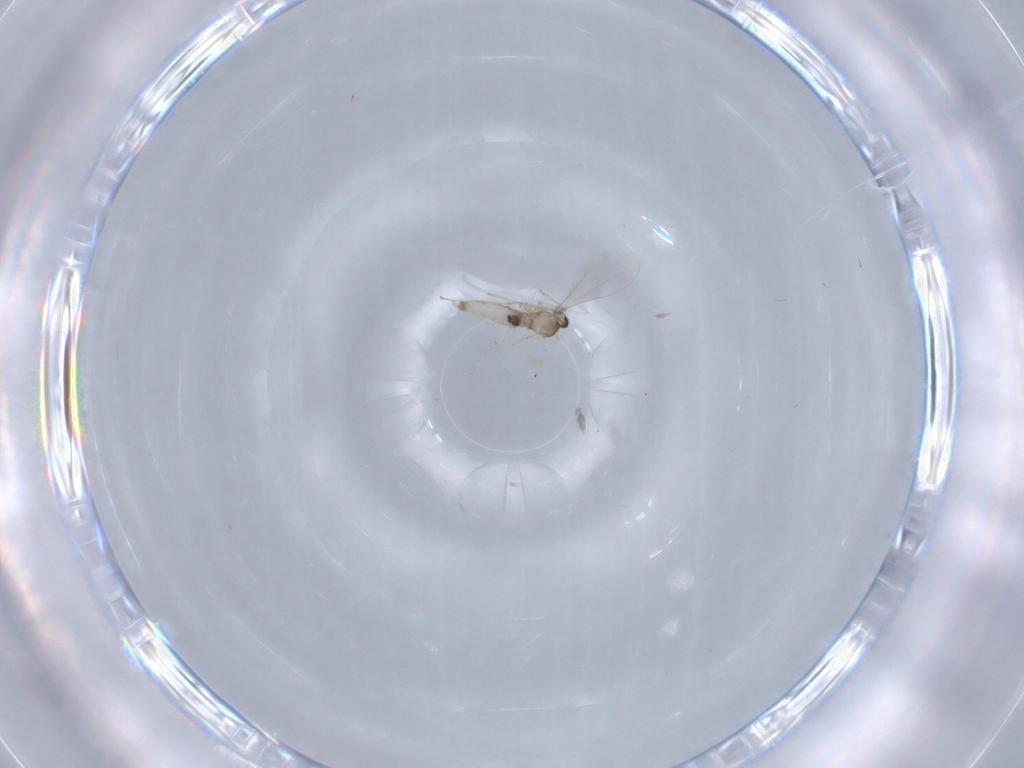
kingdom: Animalia
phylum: Arthropoda
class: Insecta
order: Diptera
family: Cecidomyiidae
